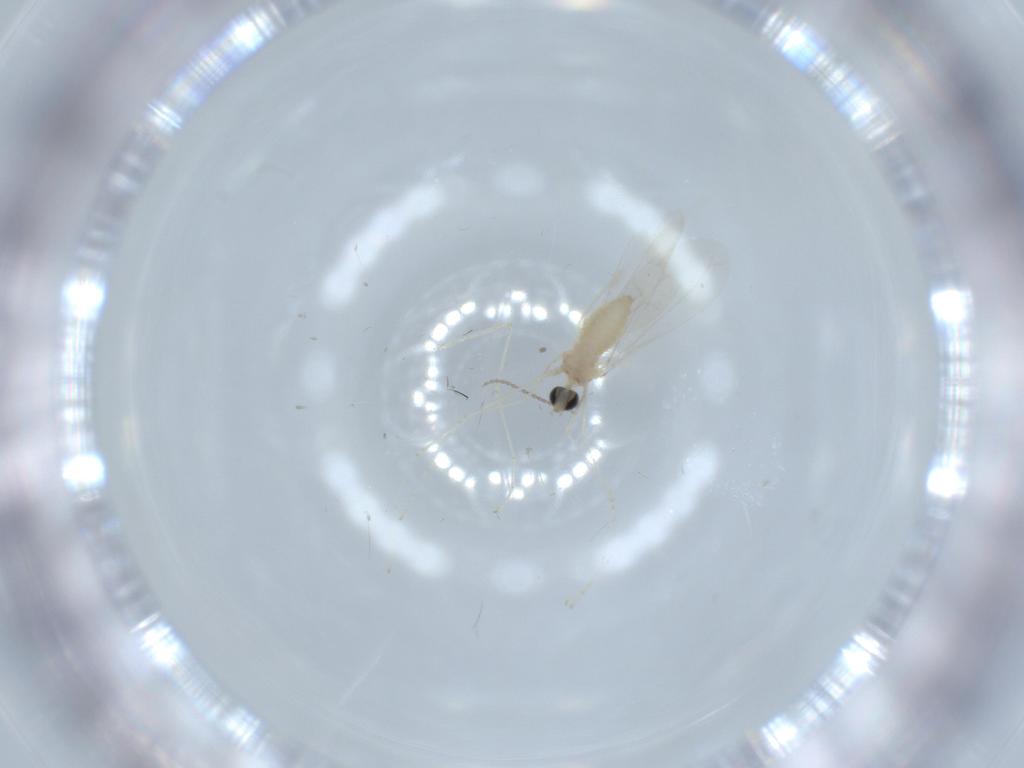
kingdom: Animalia
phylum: Arthropoda
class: Insecta
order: Diptera
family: Cecidomyiidae
